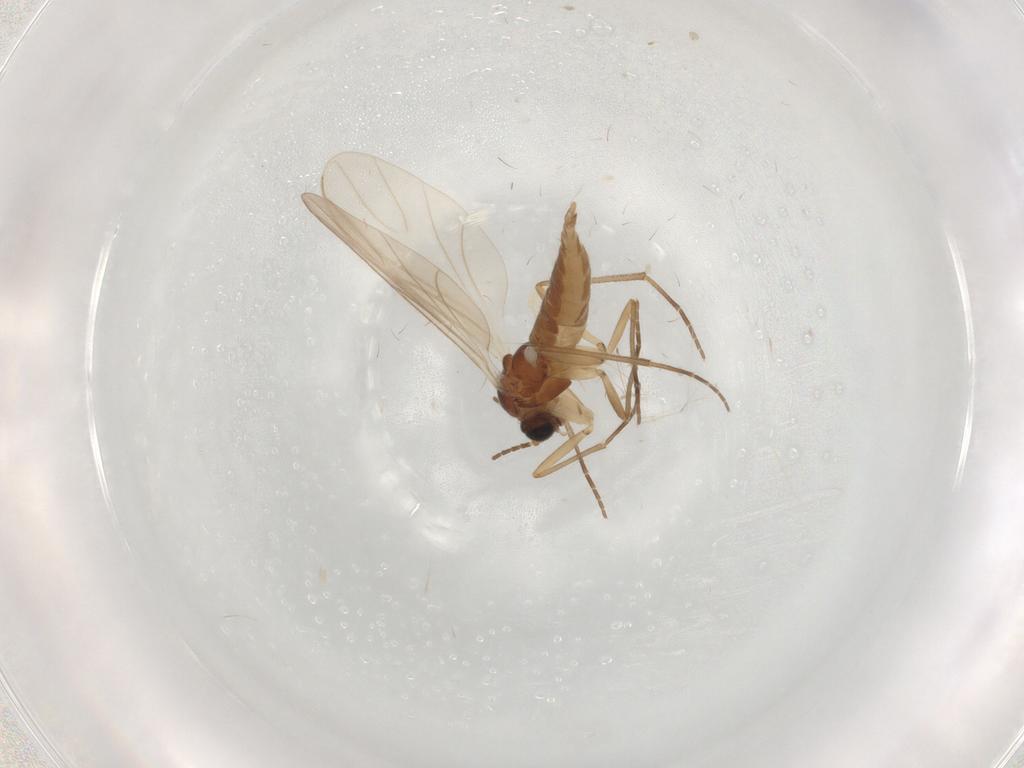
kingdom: Animalia
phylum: Arthropoda
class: Insecta
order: Diptera
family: Sciaridae
